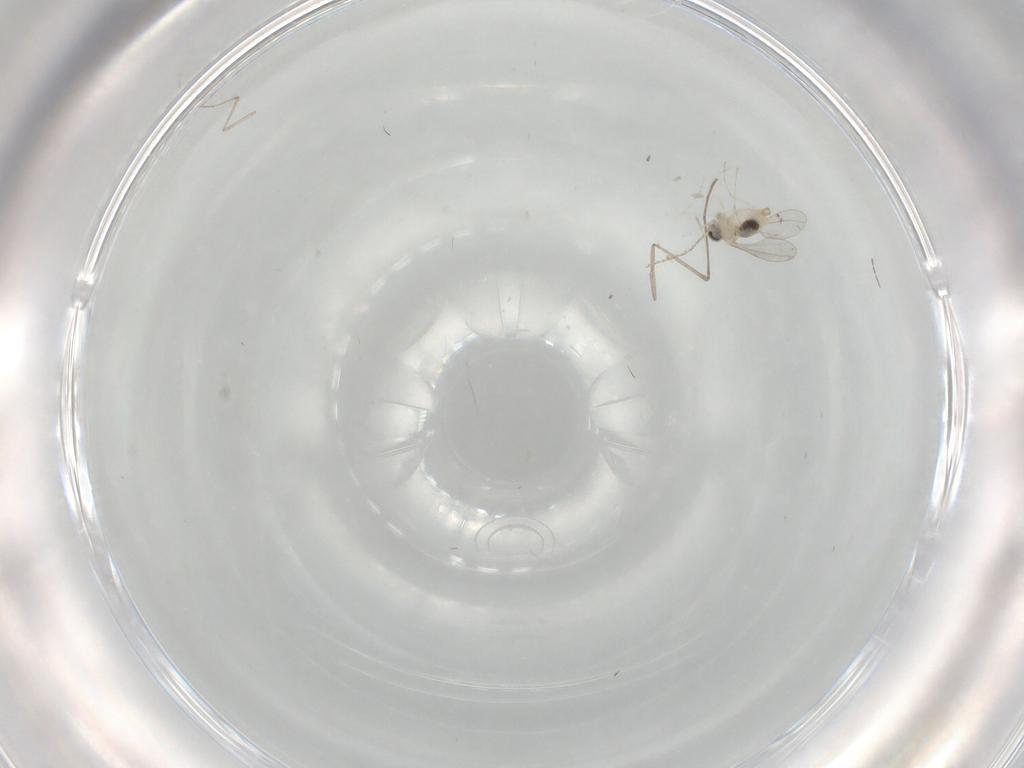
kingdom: Animalia
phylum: Arthropoda
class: Insecta
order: Diptera
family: Cecidomyiidae
